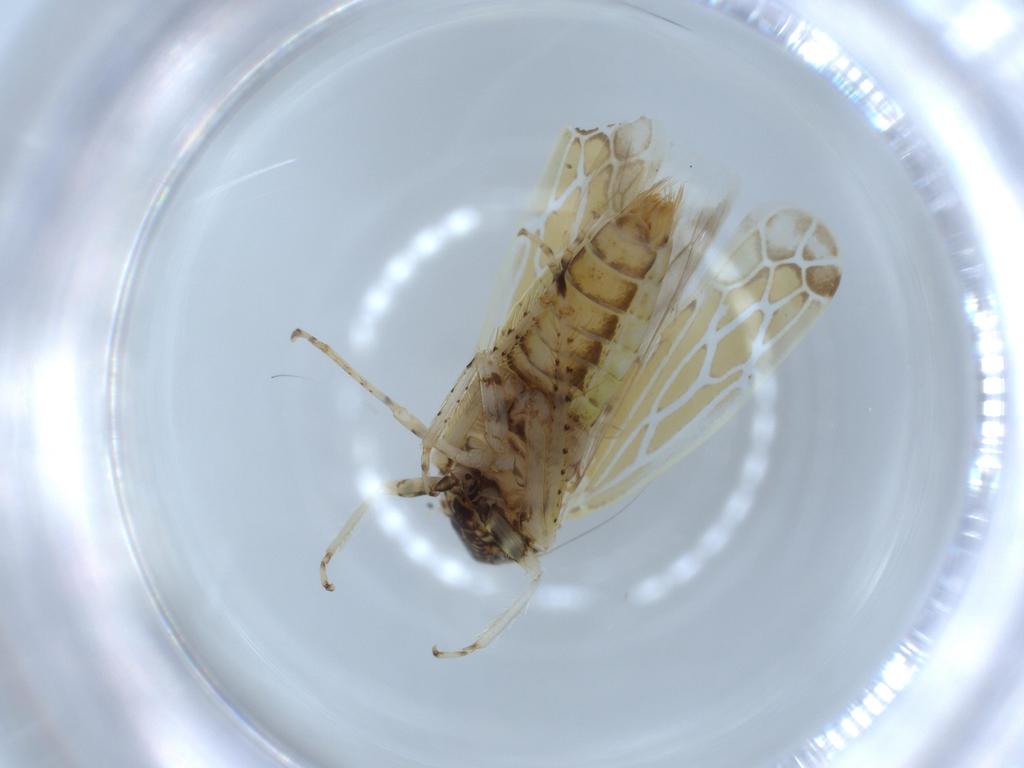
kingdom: Animalia
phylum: Arthropoda
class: Insecta
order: Hemiptera
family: Cicadellidae
